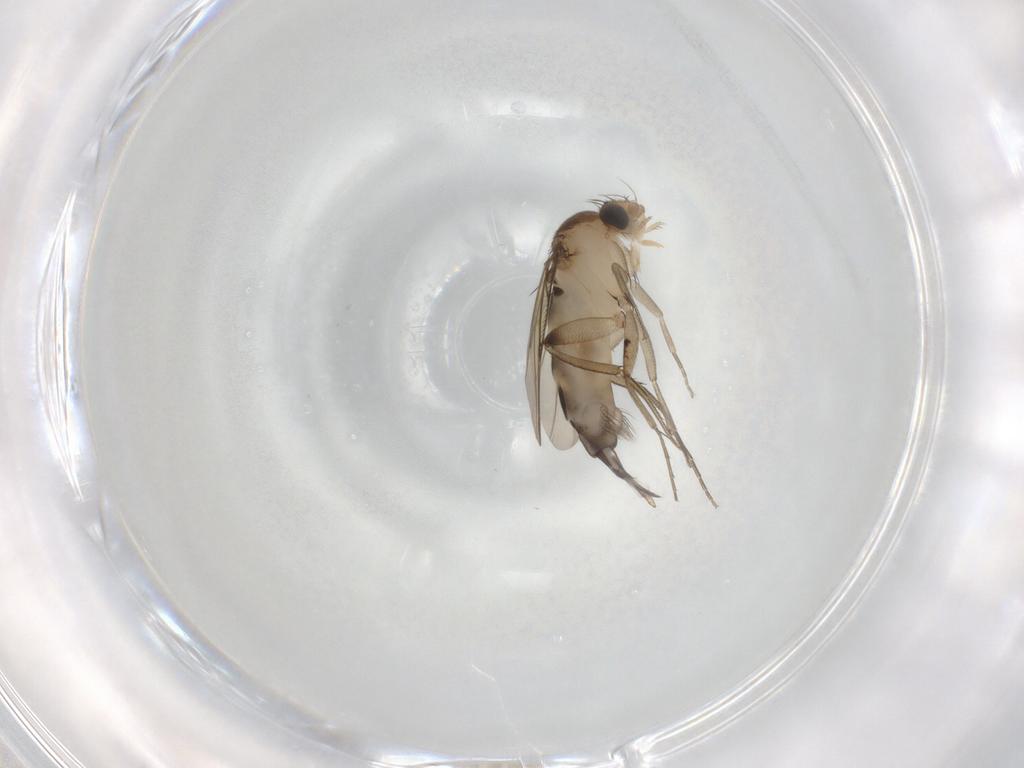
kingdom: Animalia
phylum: Arthropoda
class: Insecta
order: Diptera
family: Phoridae
